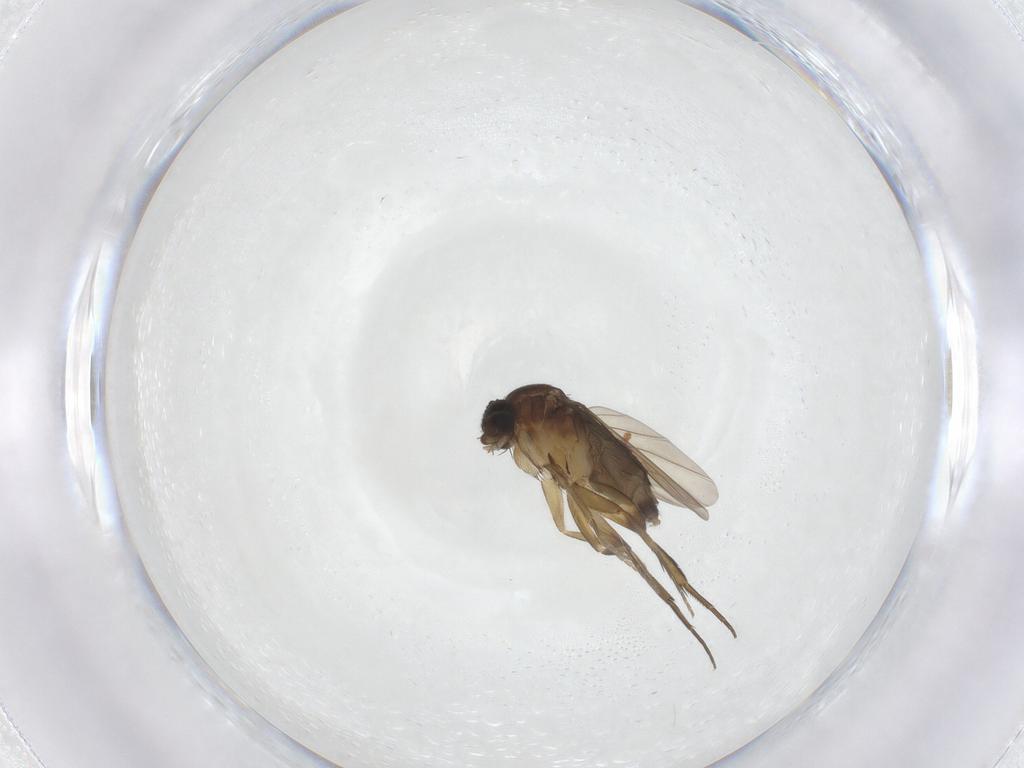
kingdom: Animalia
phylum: Arthropoda
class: Insecta
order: Diptera
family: Phoridae
